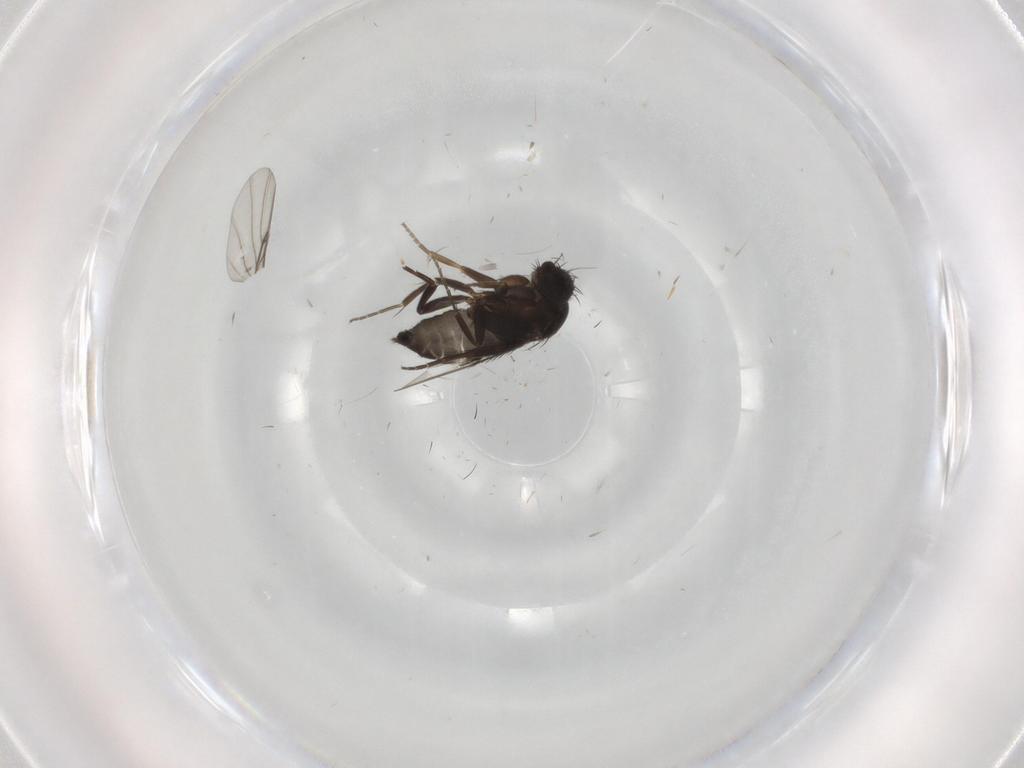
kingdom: Animalia
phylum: Arthropoda
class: Insecta
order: Diptera
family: Phoridae
